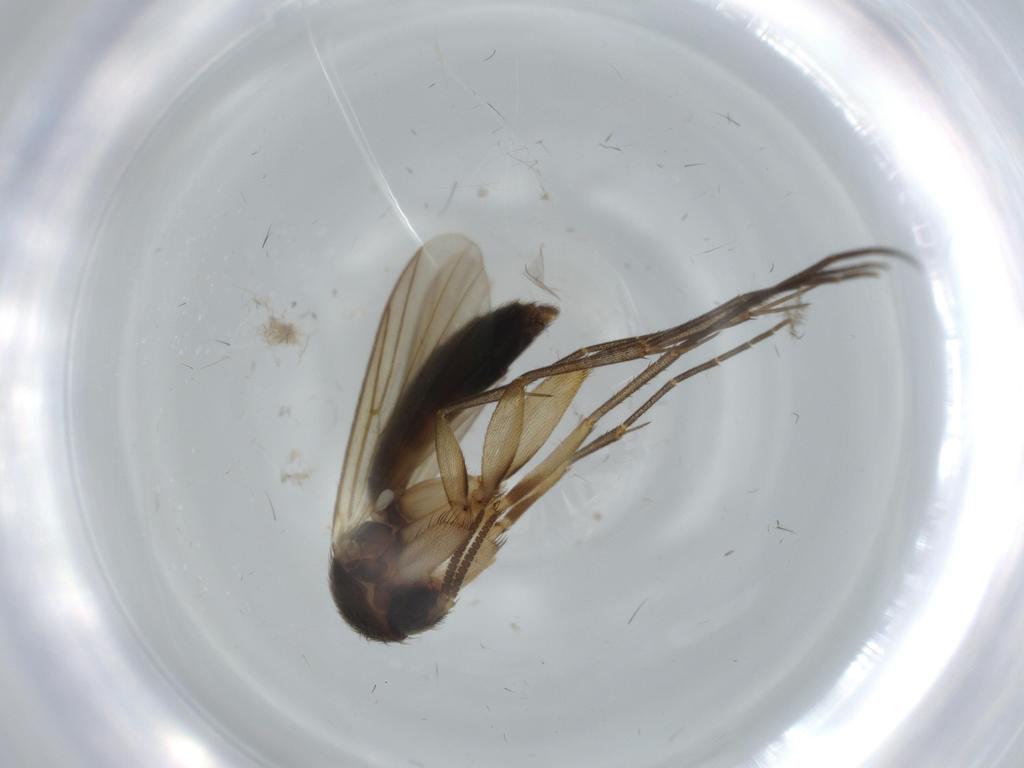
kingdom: Animalia
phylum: Arthropoda
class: Insecta
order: Diptera
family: Mycetophilidae
